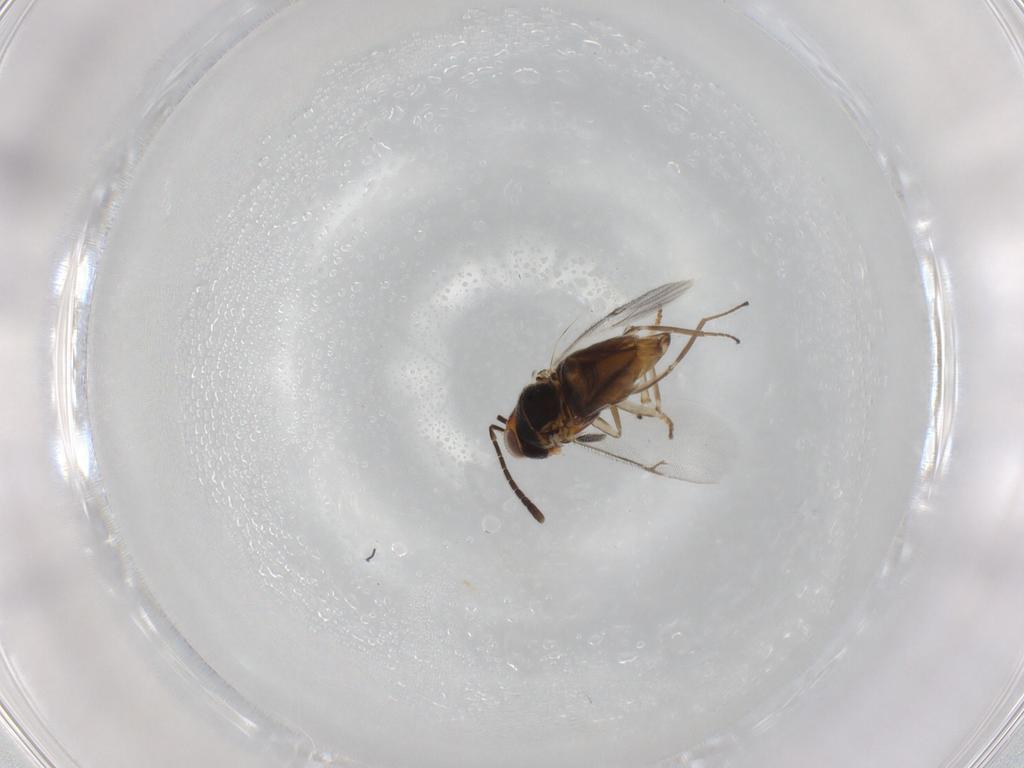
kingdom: Animalia
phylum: Arthropoda
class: Insecta
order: Hymenoptera
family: Encyrtidae
